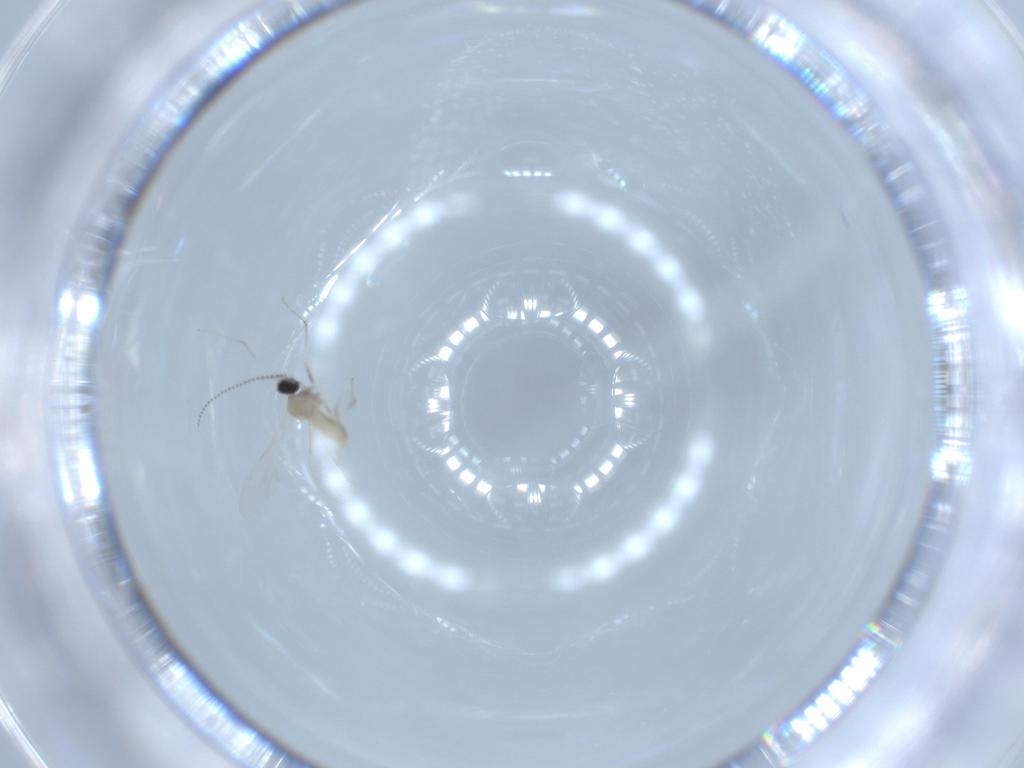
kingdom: Animalia
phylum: Arthropoda
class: Insecta
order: Diptera
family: Cecidomyiidae
